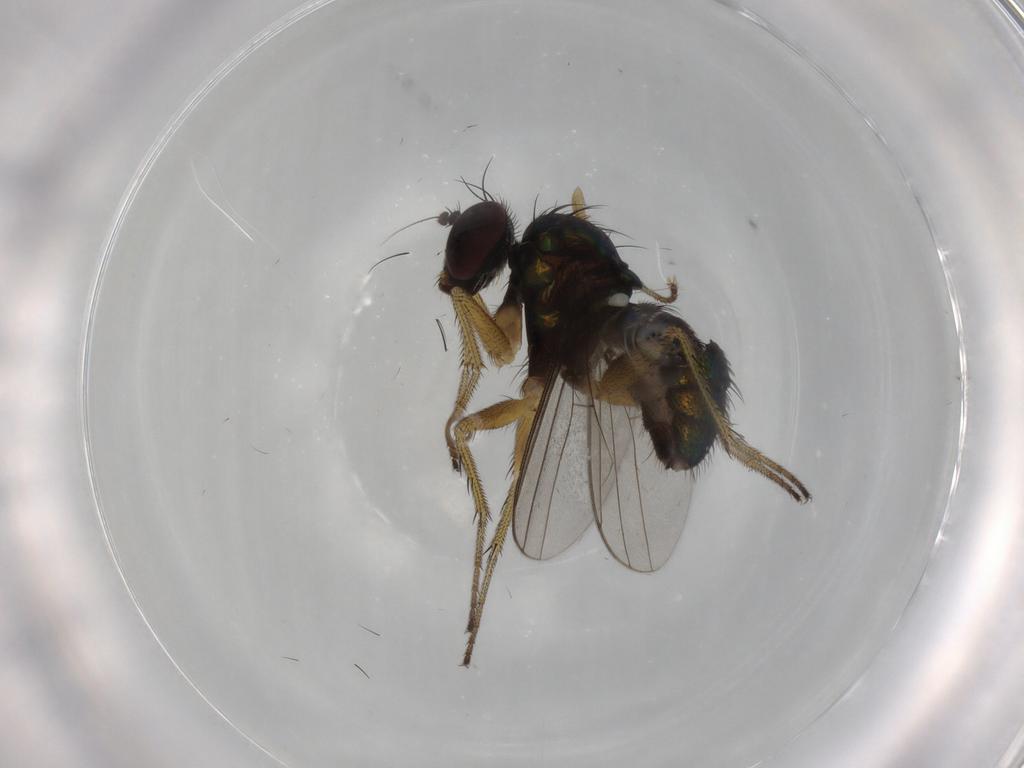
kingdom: Animalia
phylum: Arthropoda
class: Insecta
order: Diptera
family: Dolichopodidae
